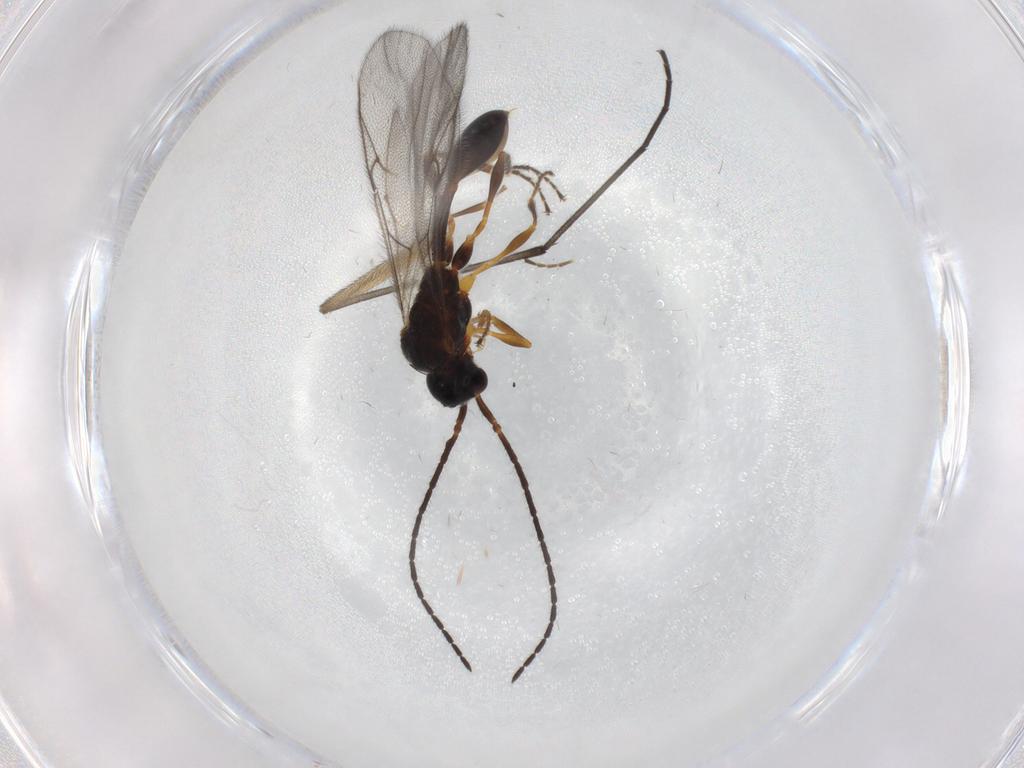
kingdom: Animalia
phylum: Arthropoda
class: Insecta
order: Hymenoptera
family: Diapriidae
